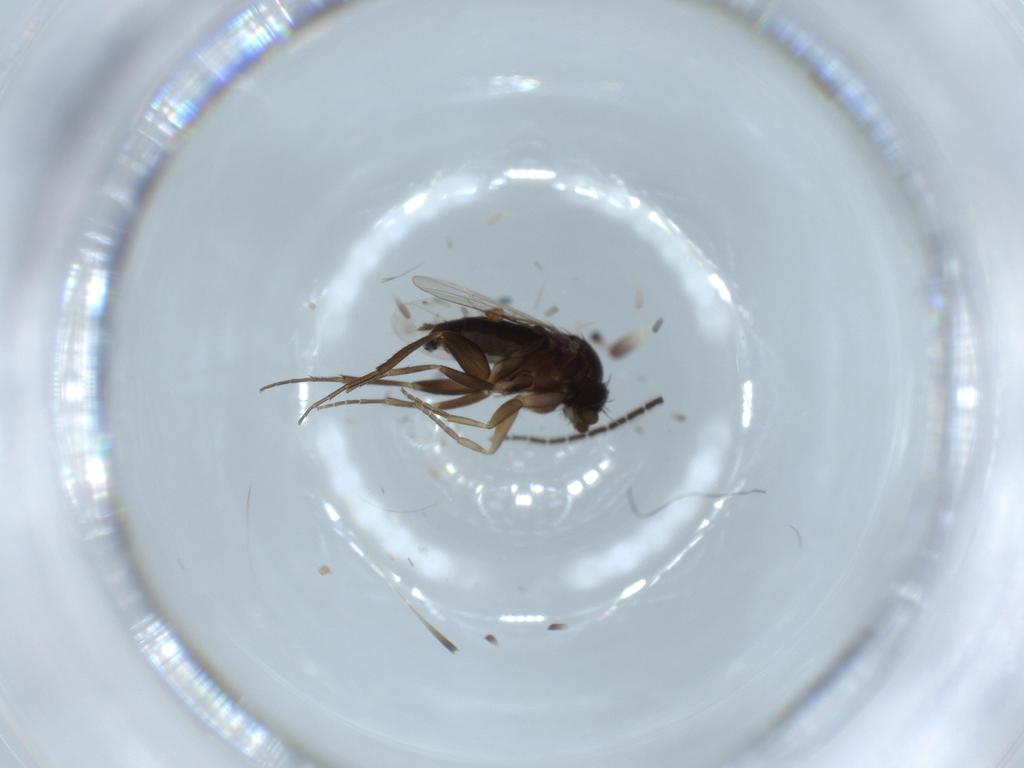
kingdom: Animalia
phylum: Arthropoda
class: Insecta
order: Diptera
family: Phoridae
